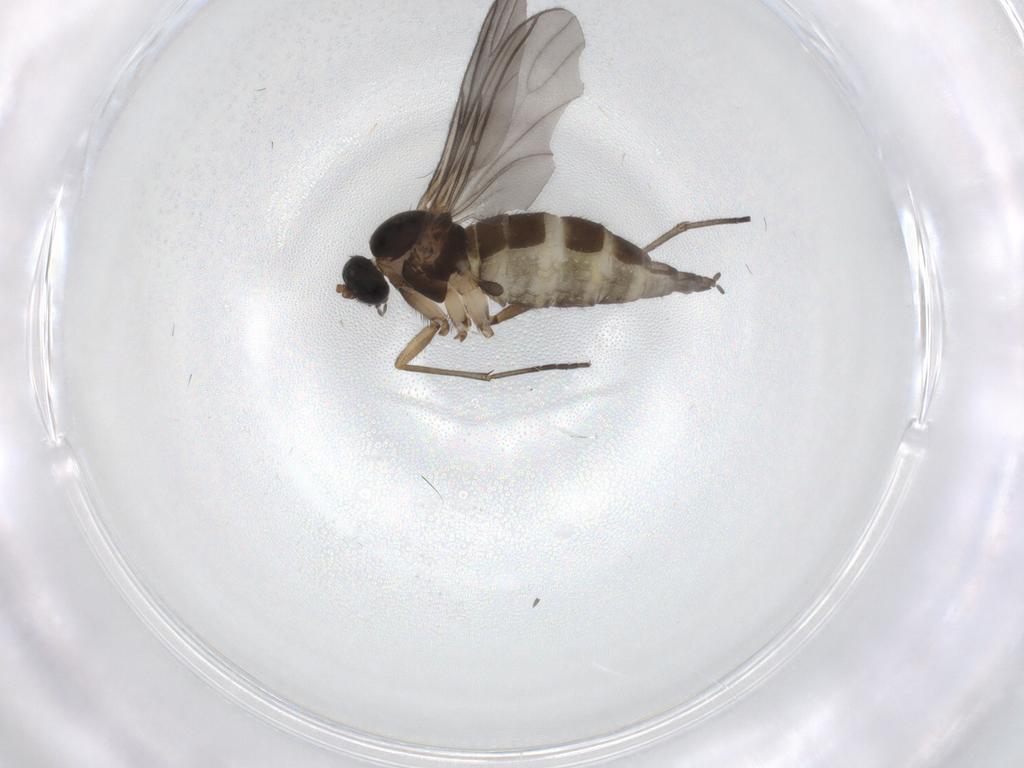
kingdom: Animalia
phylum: Arthropoda
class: Insecta
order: Diptera
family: Sciaridae
